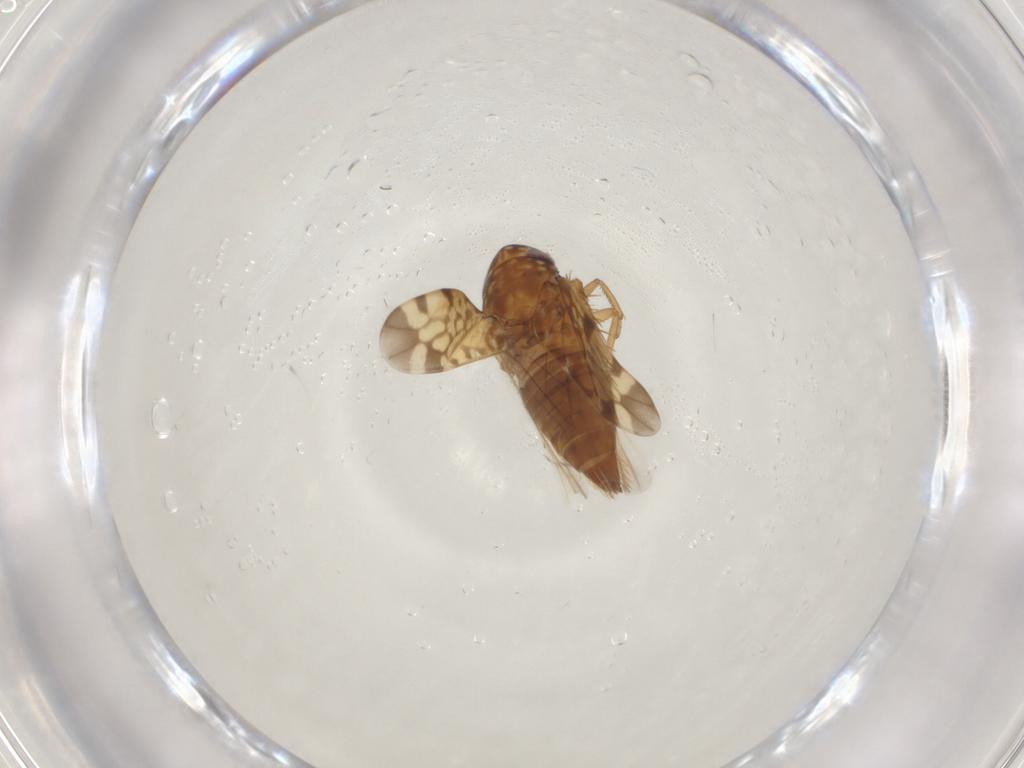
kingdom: Animalia
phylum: Arthropoda
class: Insecta
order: Hemiptera
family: Cicadellidae
